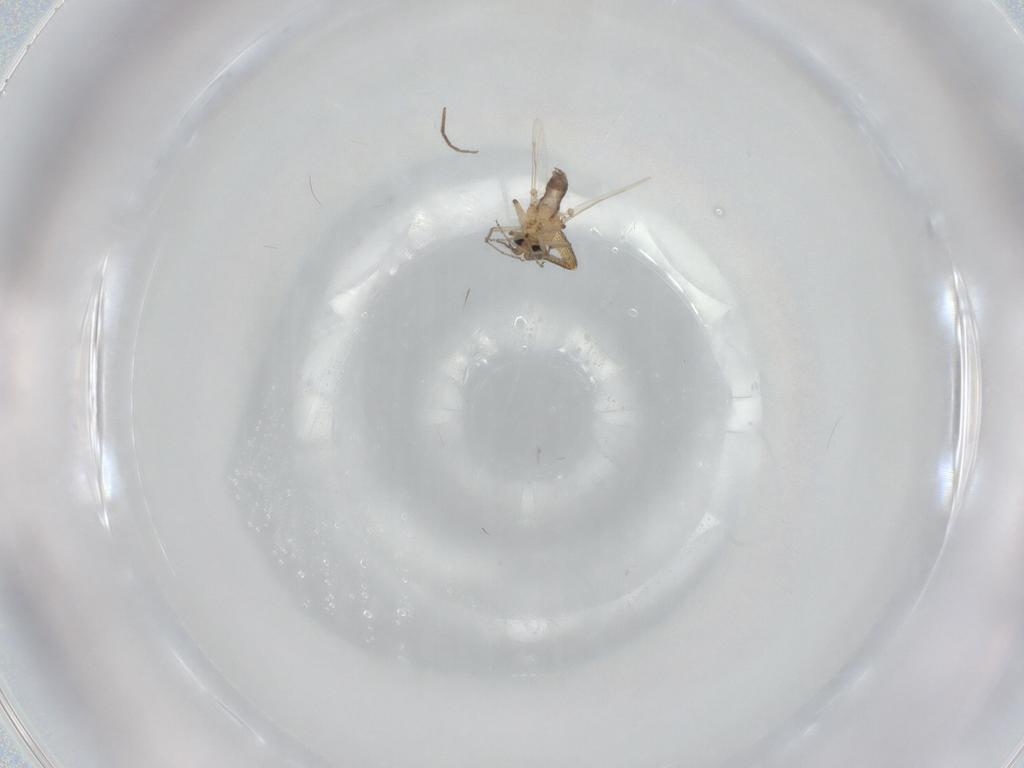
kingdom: Animalia
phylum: Arthropoda
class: Insecta
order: Diptera
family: Ceratopogonidae
